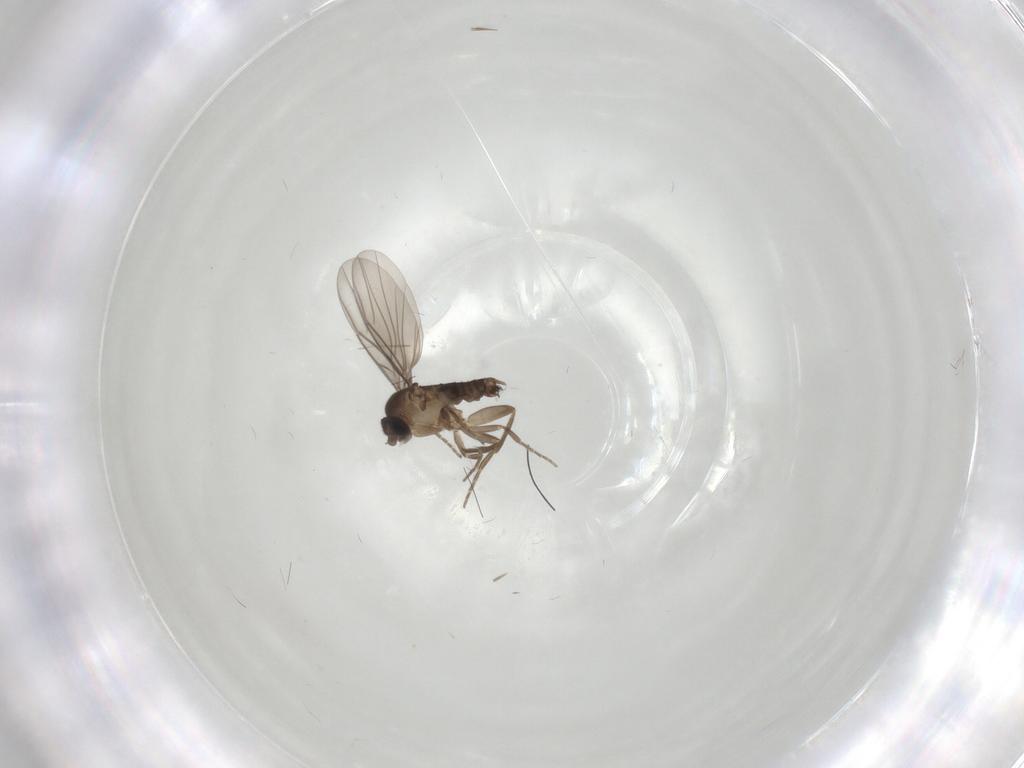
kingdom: Animalia
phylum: Arthropoda
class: Insecta
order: Diptera
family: Phoridae
